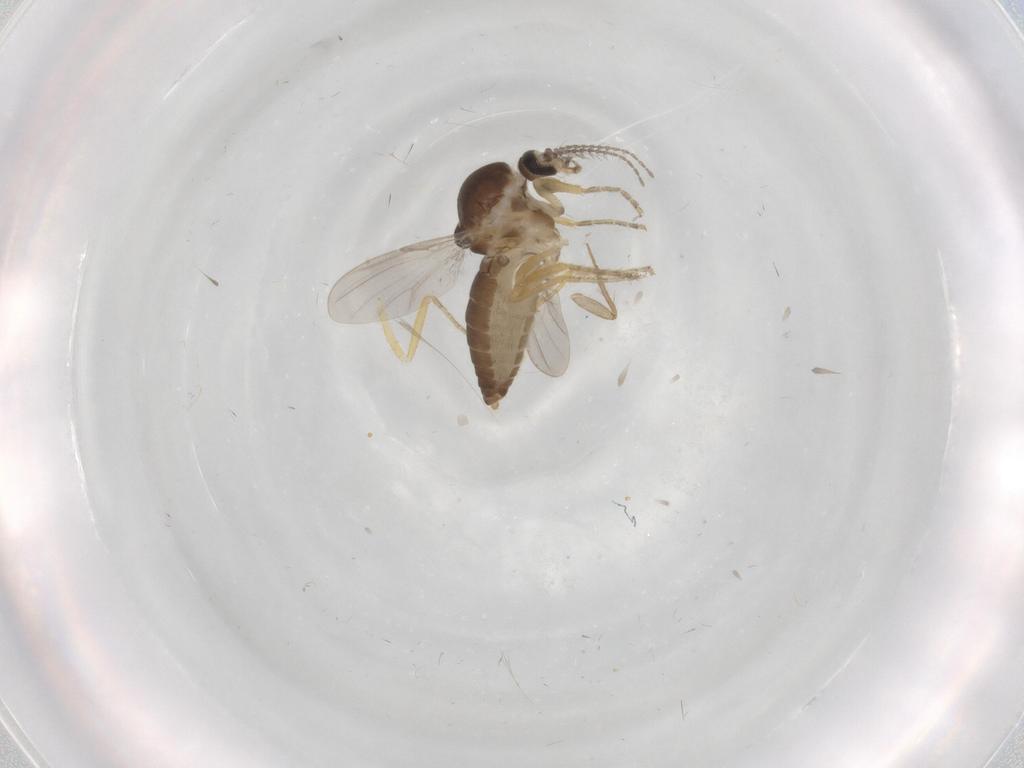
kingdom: Animalia
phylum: Arthropoda
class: Insecta
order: Diptera
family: Ceratopogonidae
